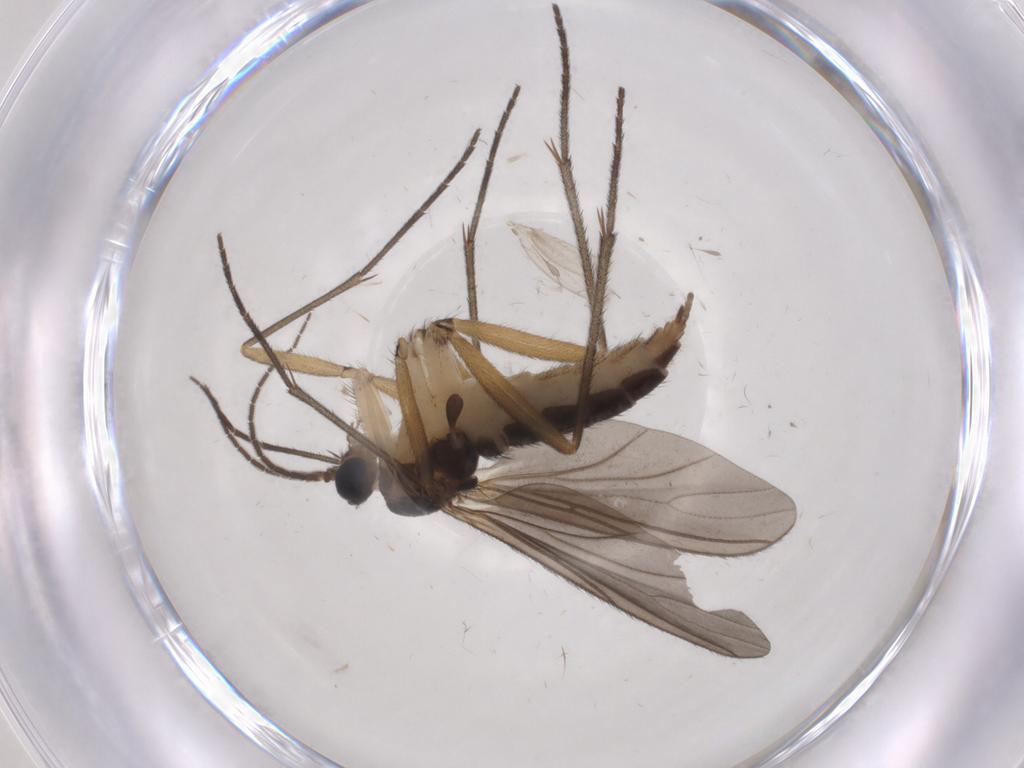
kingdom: Animalia
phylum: Arthropoda
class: Insecta
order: Diptera
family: Sciaridae
